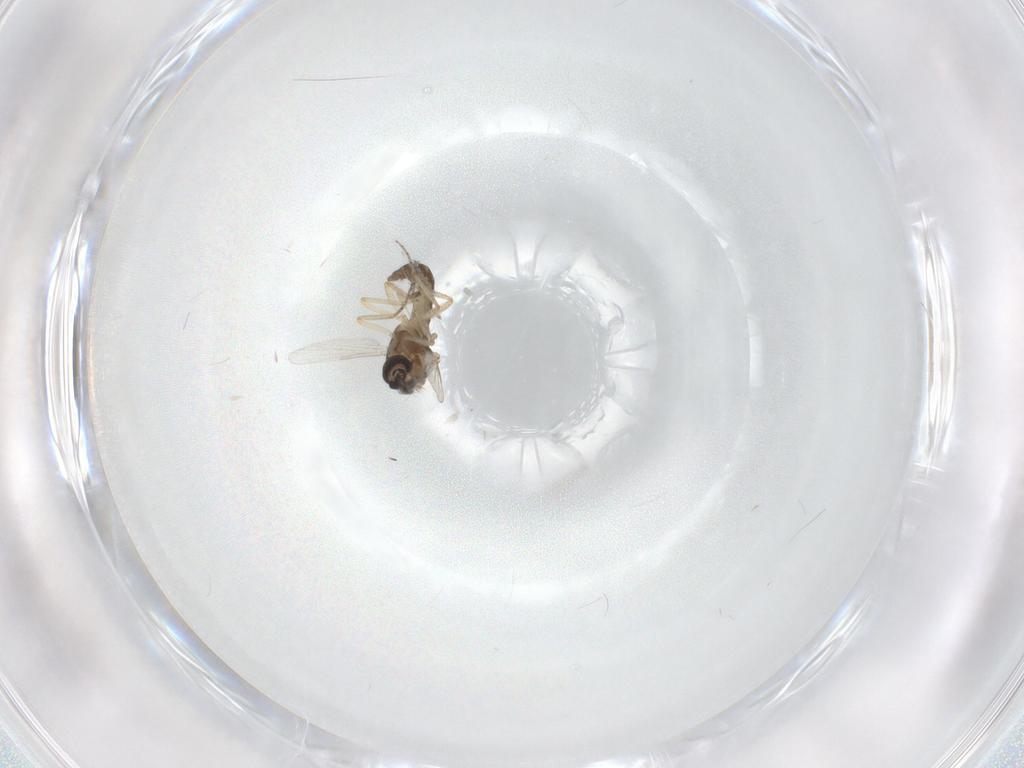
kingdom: Animalia
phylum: Arthropoda
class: Insecta
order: Diptera
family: Ceratopogonidae
